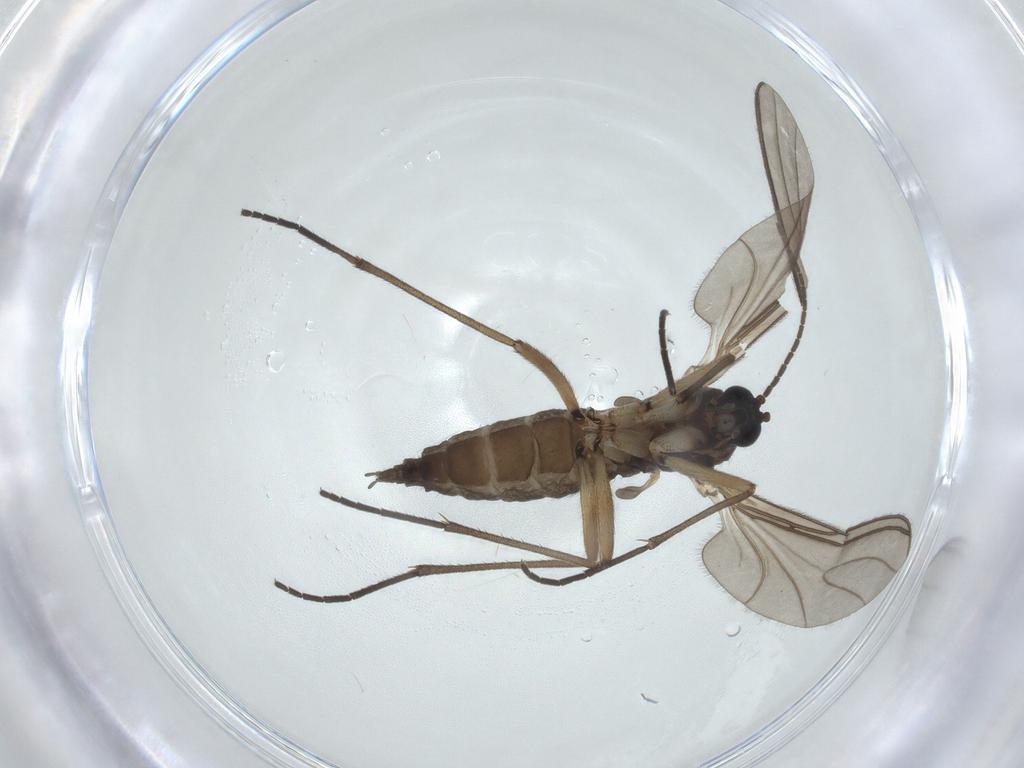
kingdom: Animalia
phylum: Arthropoda
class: Insecta
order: Diptera
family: Sciaridae
